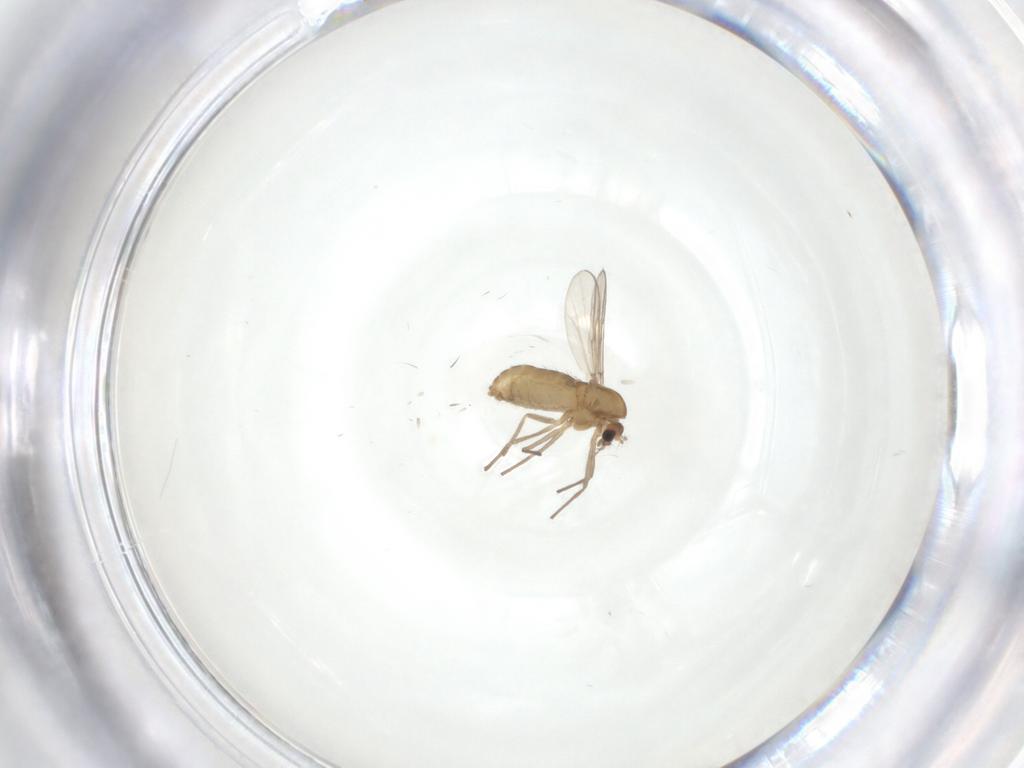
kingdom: Animalia
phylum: Arthropoda
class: Insecta
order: Diptera
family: Chironomidae
